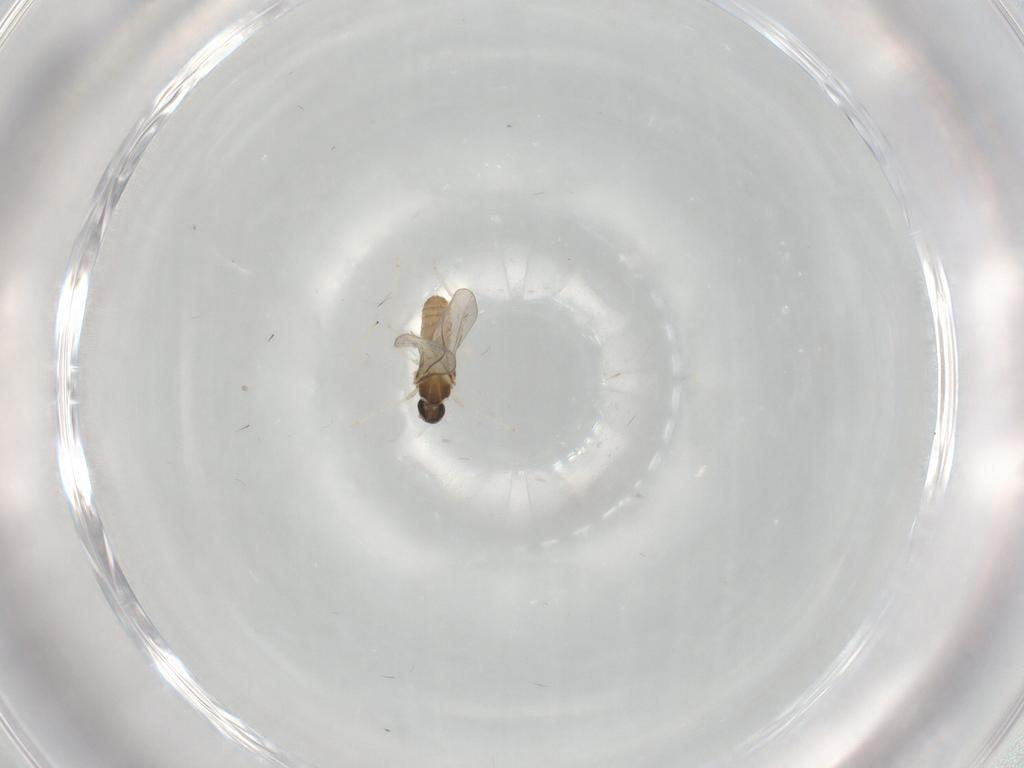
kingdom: Animalia
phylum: Arthropoda
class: Insecta
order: Diptera
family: Cecidomyiidae
